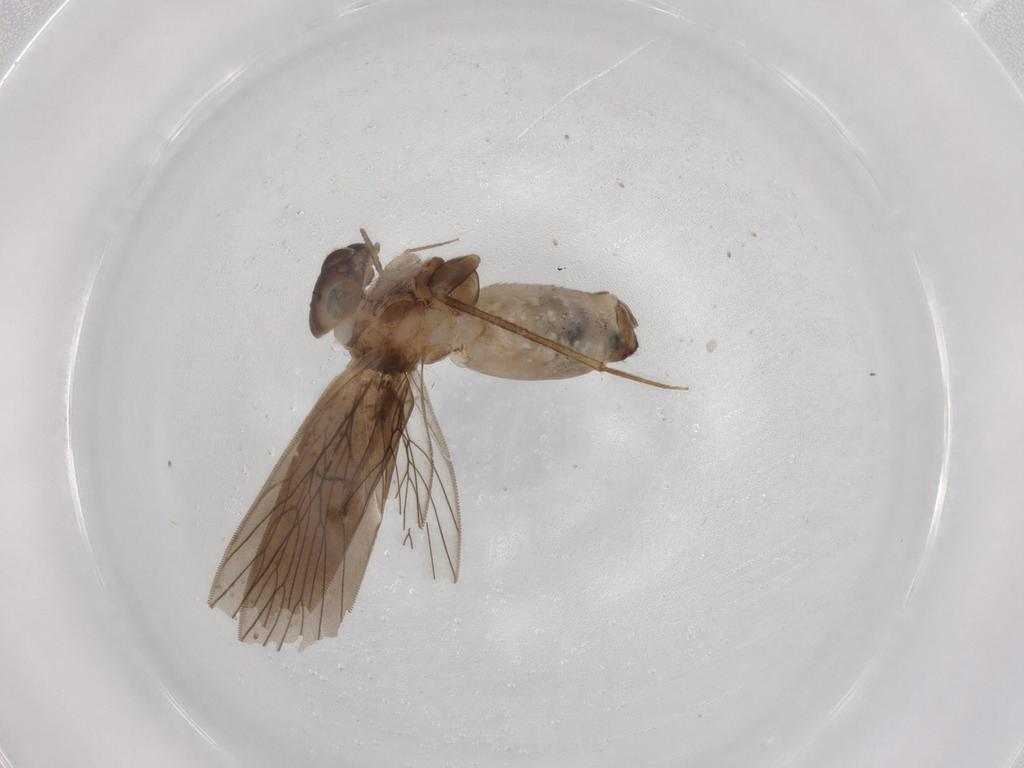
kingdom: Animalia
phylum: Arthropoda
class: Insecta
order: Psocodea
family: Lepidopsocidae
